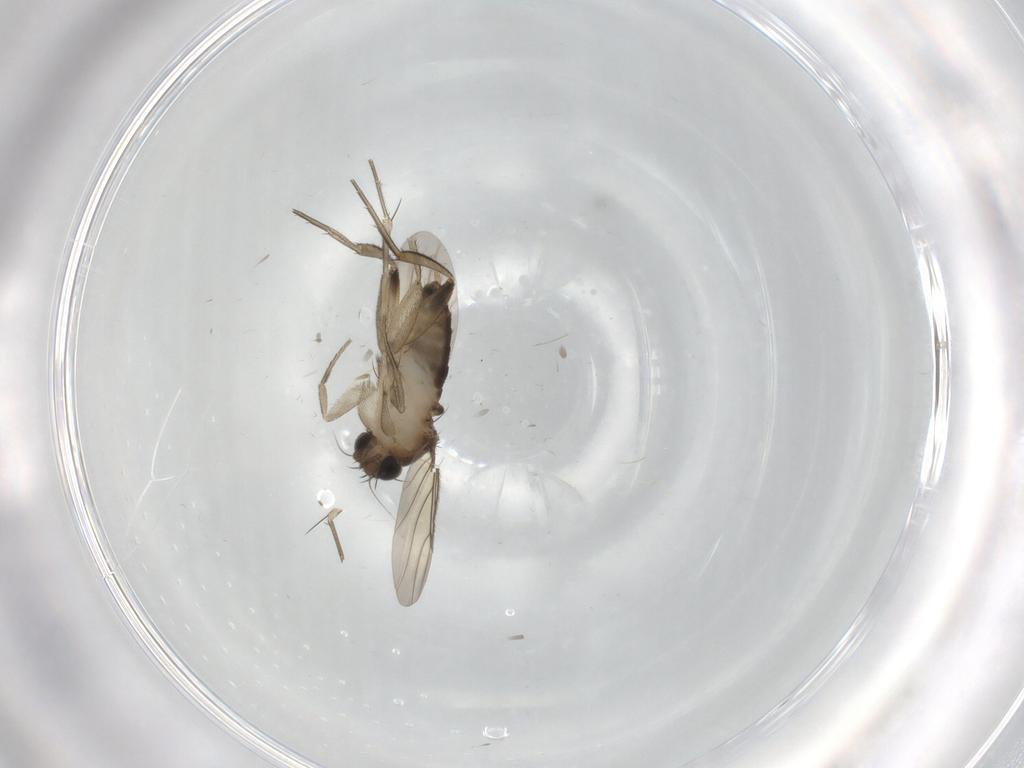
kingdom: Animalia
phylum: Arthropoda
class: Insecta
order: Diptera
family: Phoridae
